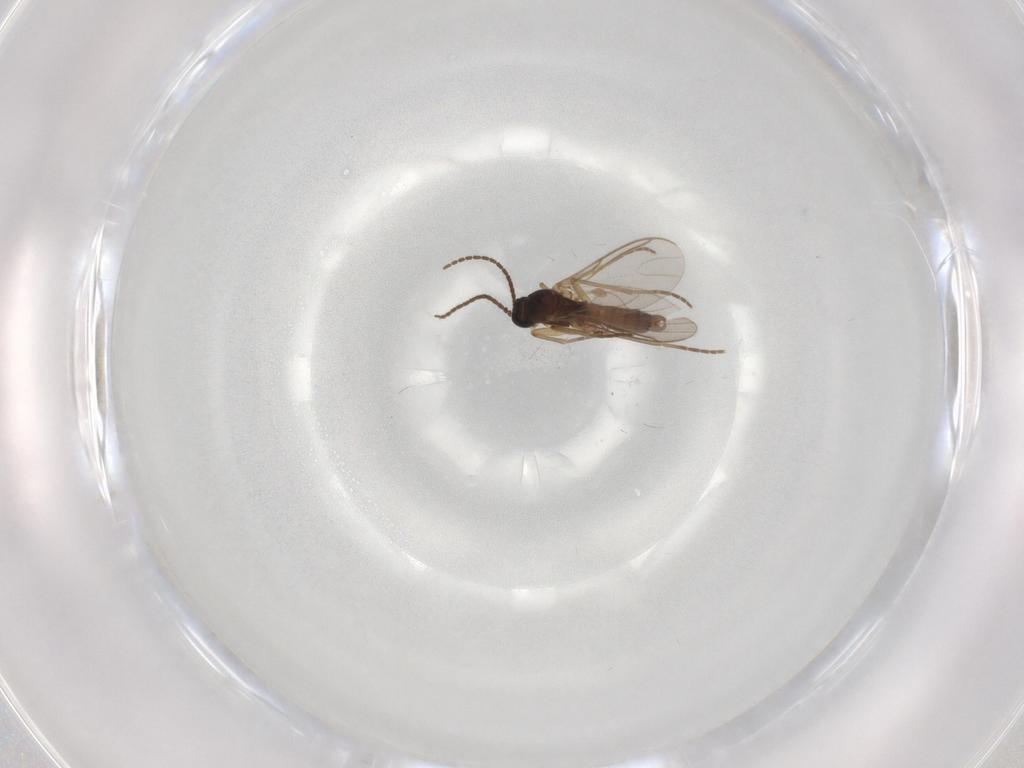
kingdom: Animalia
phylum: Arthropoda
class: Insecta
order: Diptera
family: Sciaridae
